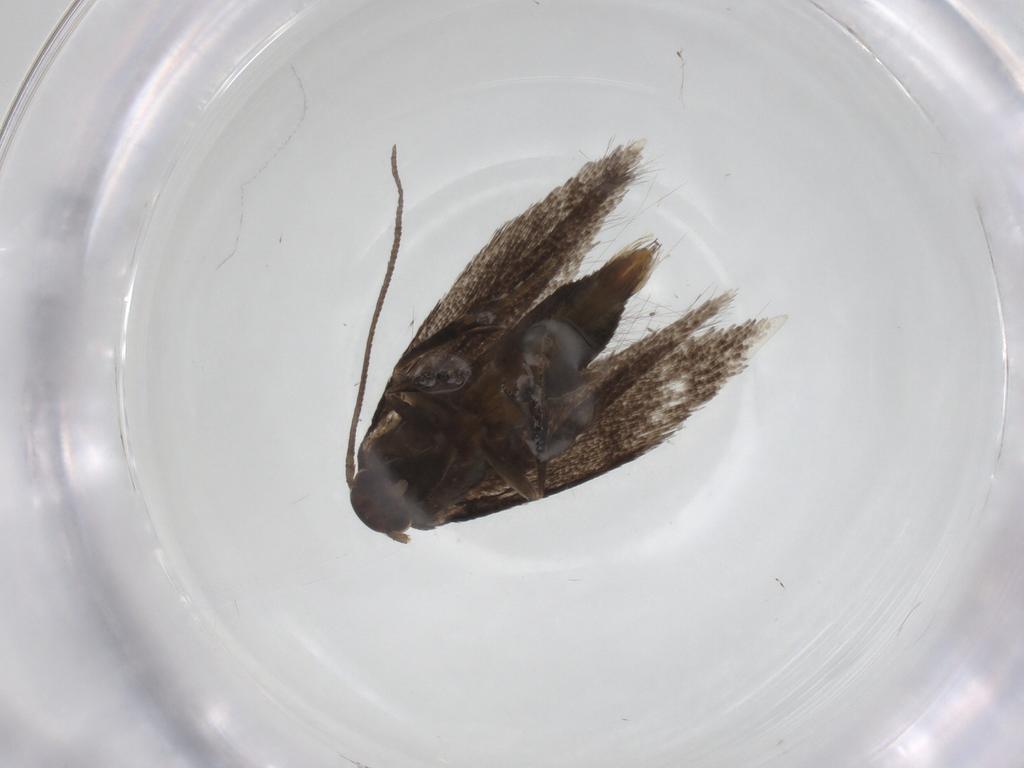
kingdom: Animalia
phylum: Arthropoda
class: Insecta
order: Lepidoptera
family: Elachistidae
